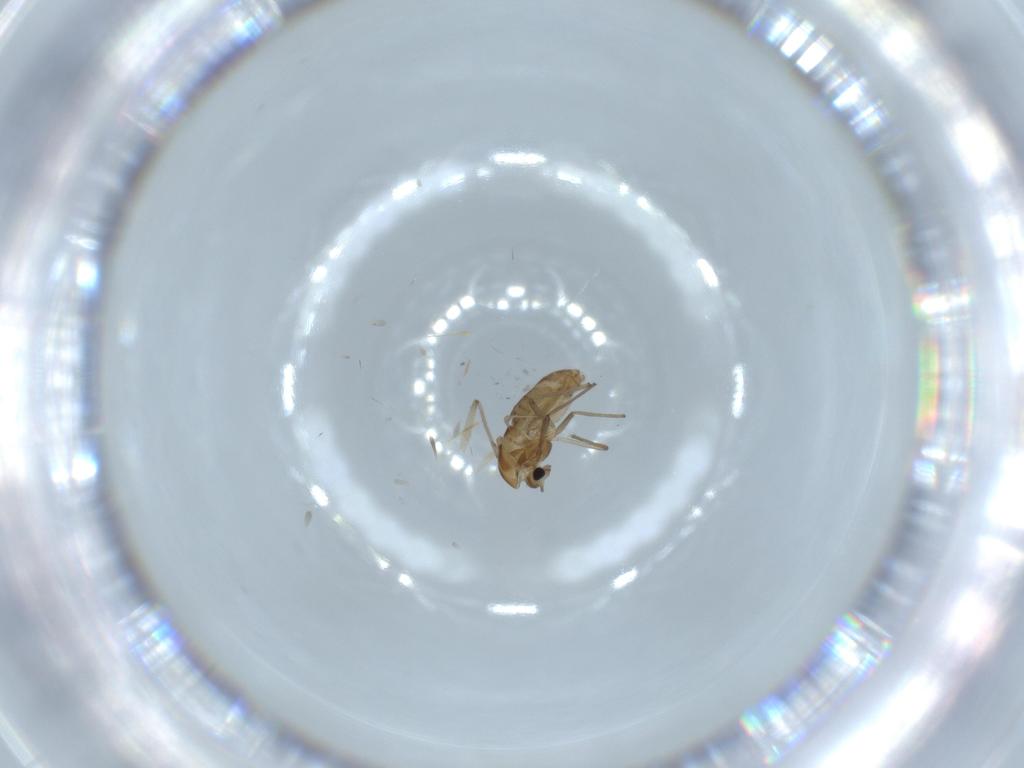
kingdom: Animalia
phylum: Arthropoda
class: Insecta
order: Diptera
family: Chironomidae
